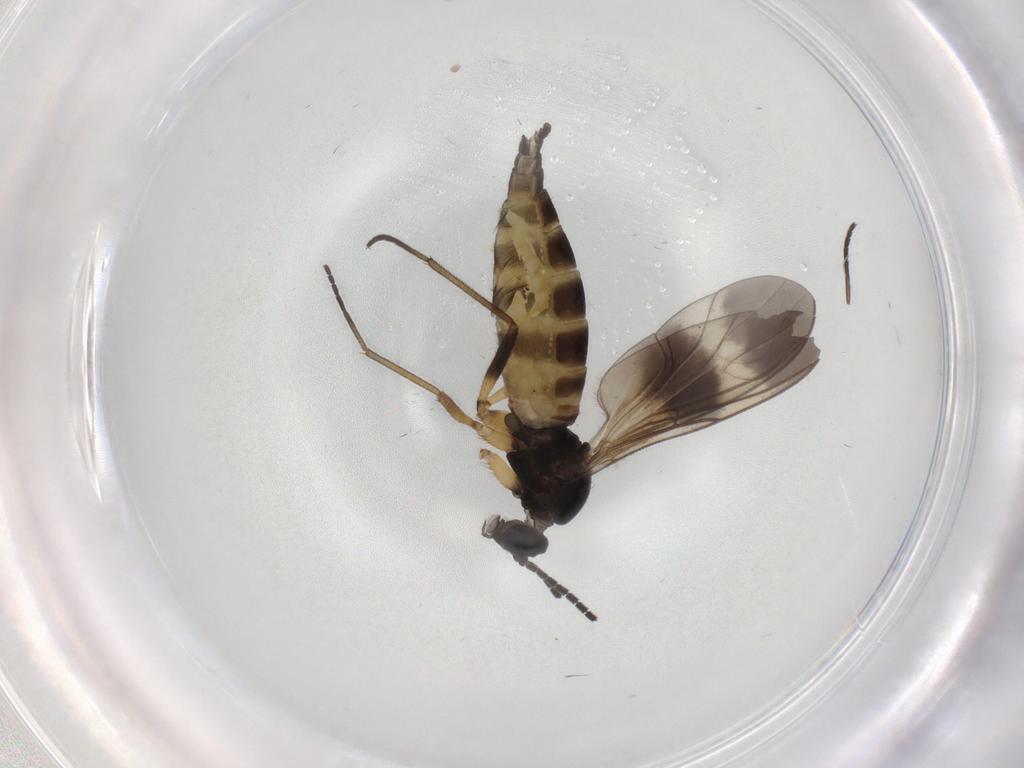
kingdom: Animalia
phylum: Arthropoda
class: Insecta
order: Diptera
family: Sciaridae
